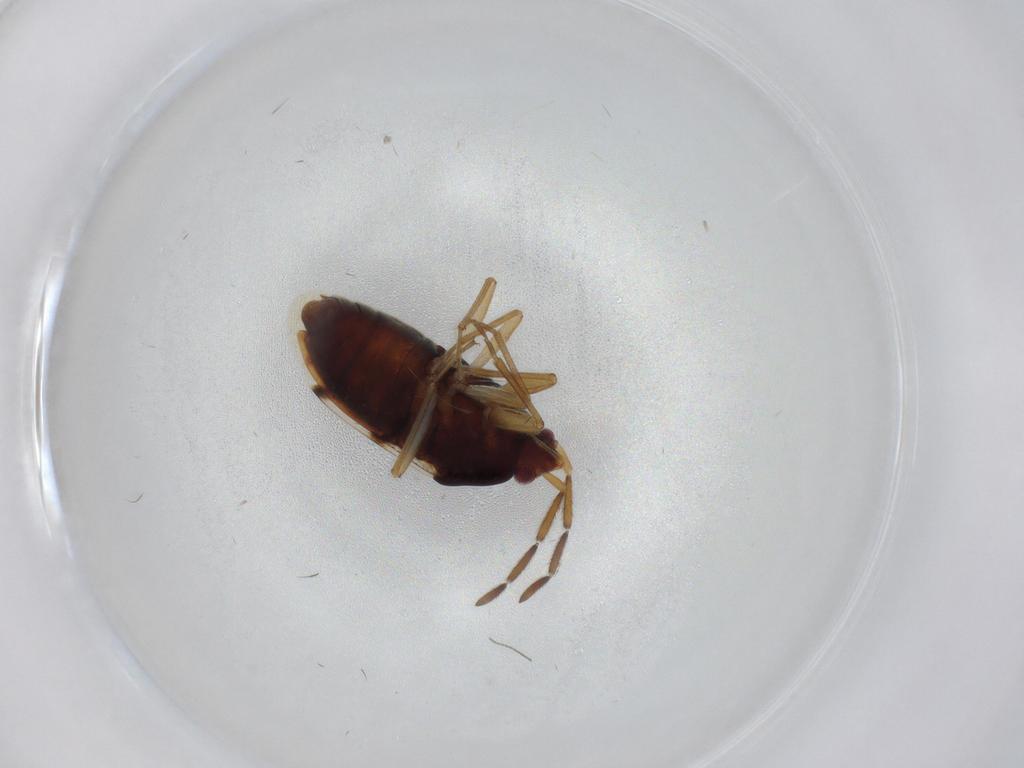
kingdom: Animalia
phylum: Arthropoda
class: Insecta
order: Hemiptera
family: Rhyparochromidae
